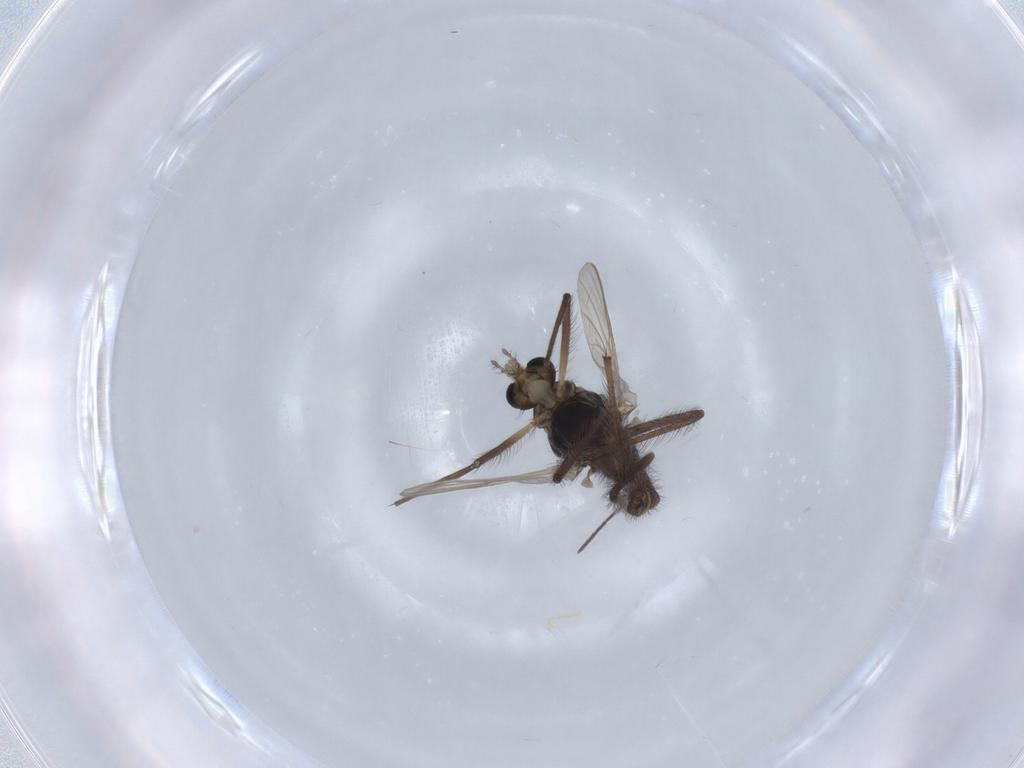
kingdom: Animalia
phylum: Arthropoda
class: Insecta
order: Diptera
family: Chironomidae
